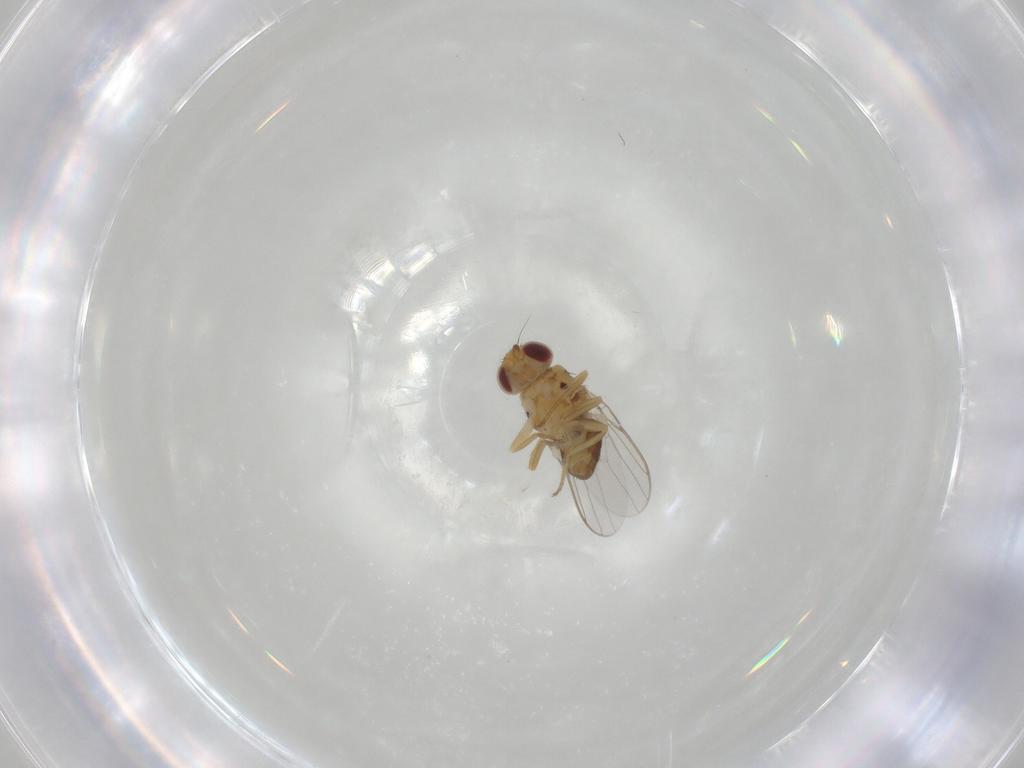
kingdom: Animalia
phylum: Arthropoda
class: Insecta
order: Diptera
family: Chloropidae
